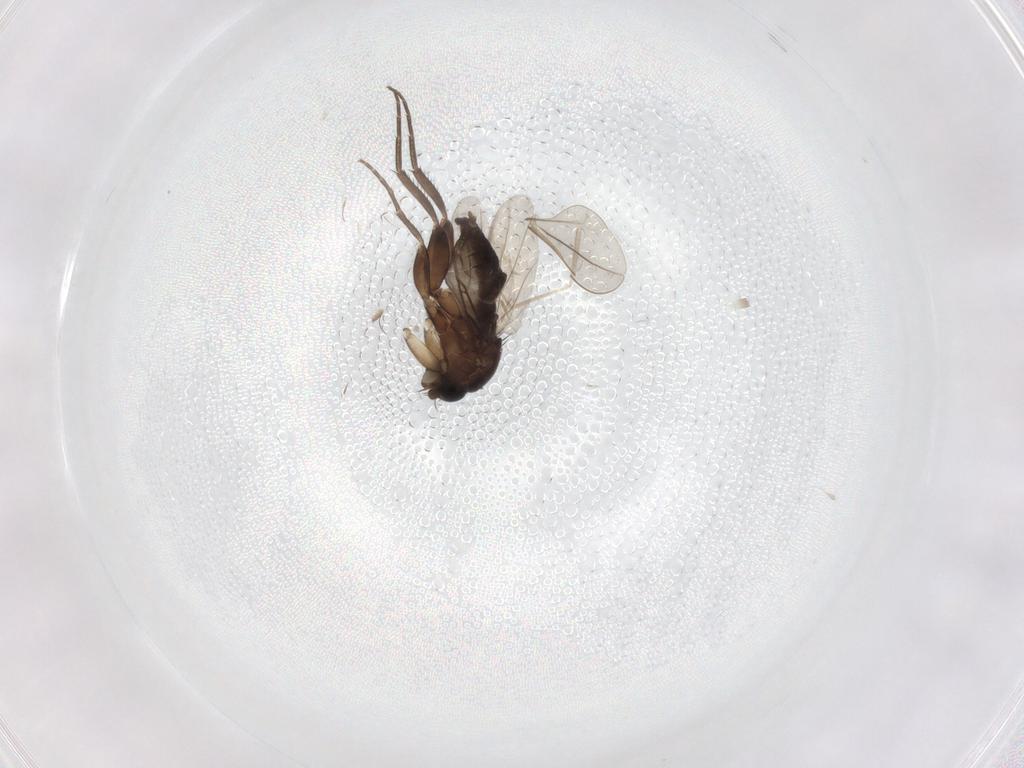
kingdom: Animalia
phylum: Arthropoda
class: Insecta
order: Diptera
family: Phoridae
